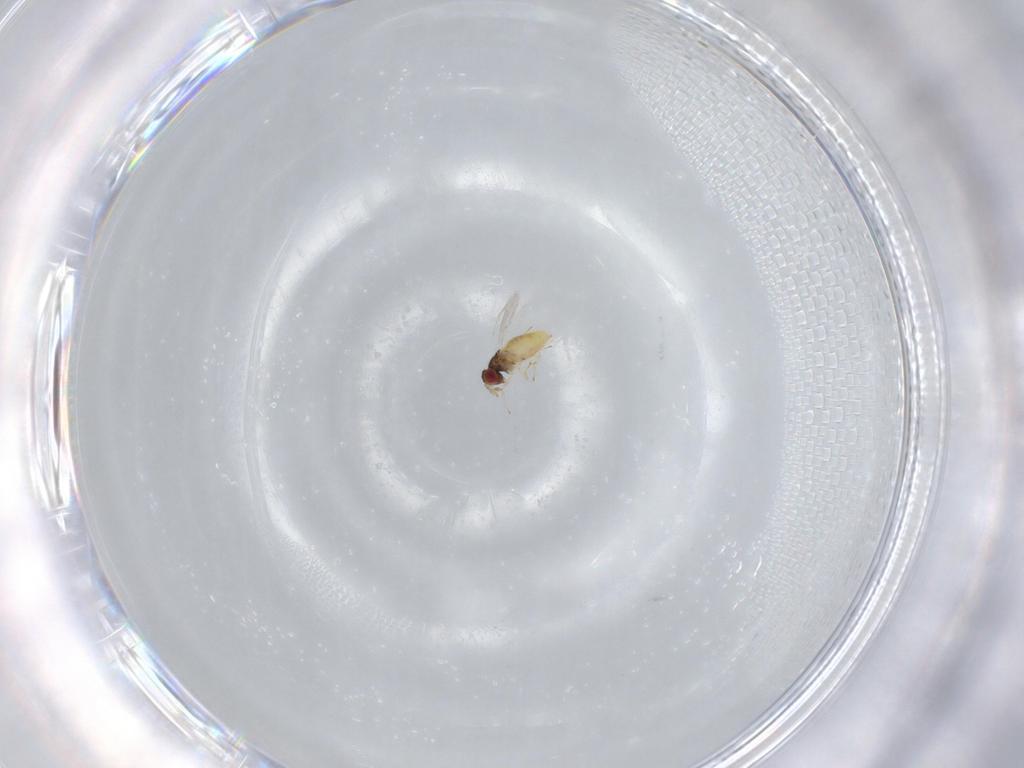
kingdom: Animalia
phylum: Arthropoda
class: Insecta
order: Hymenoptera
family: Trichogrammatidae
